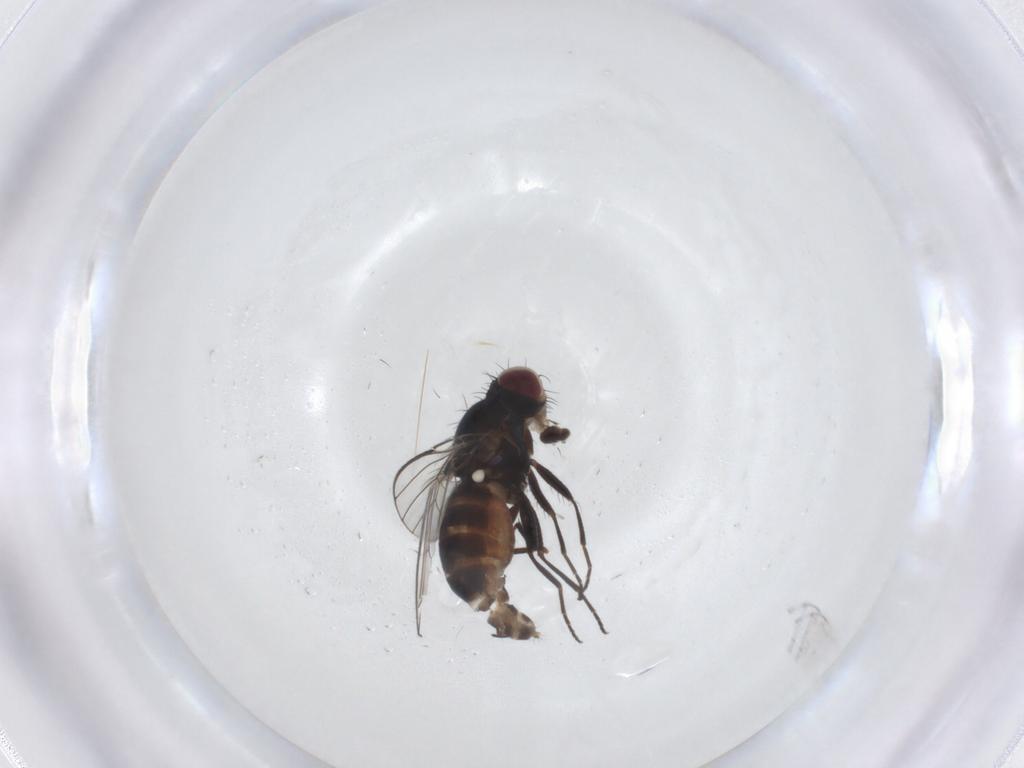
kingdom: Animalia
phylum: Arthropoda
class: Insecta
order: Diptera
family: Carnidae
